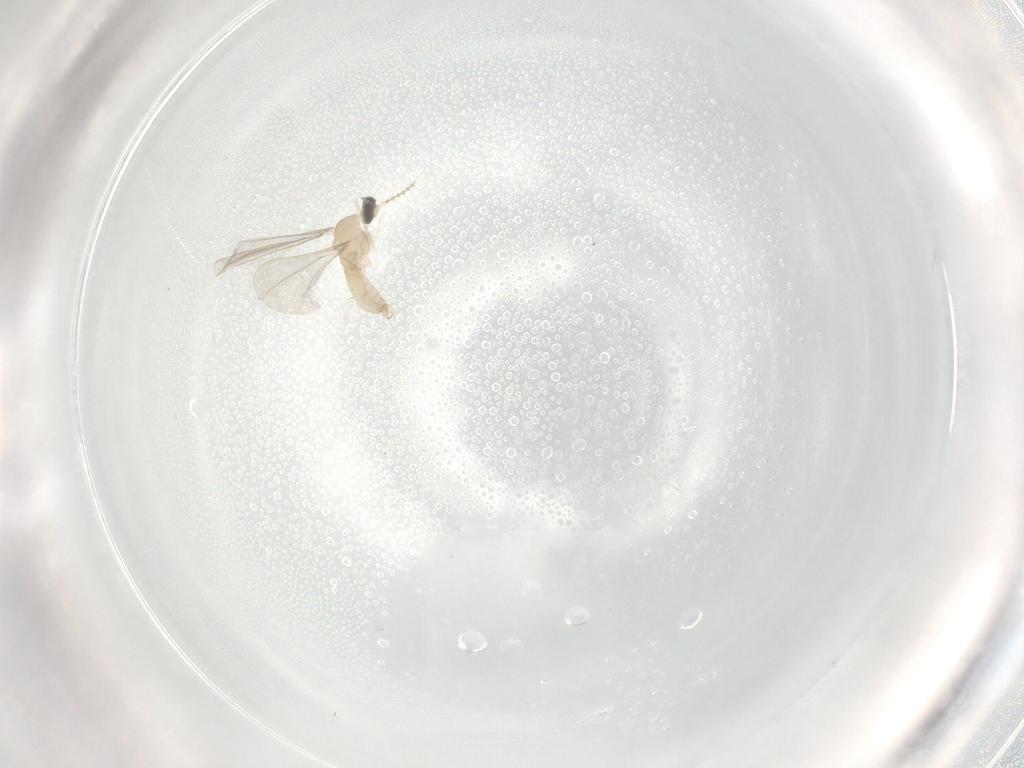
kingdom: Animalia
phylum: Arthropoda
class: Insecta
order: Diptera
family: Cecidomyiidae
